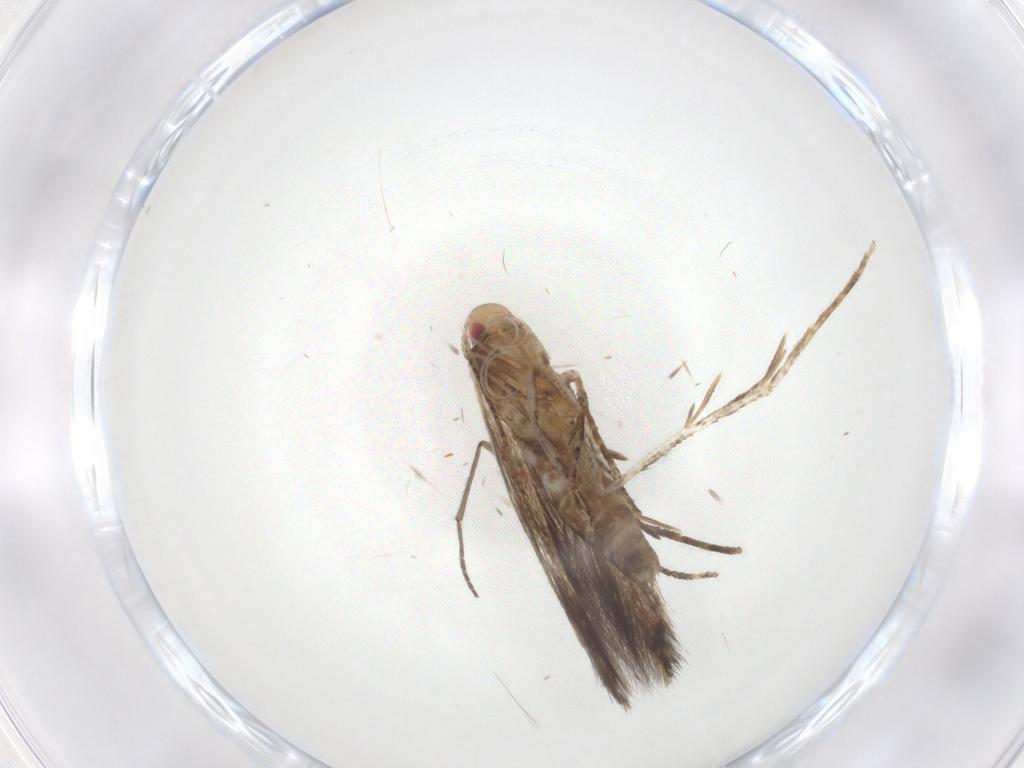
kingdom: Animalia
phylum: Arthropoda
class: Insecta
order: Lepidoptera
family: Cosmopterigidae
